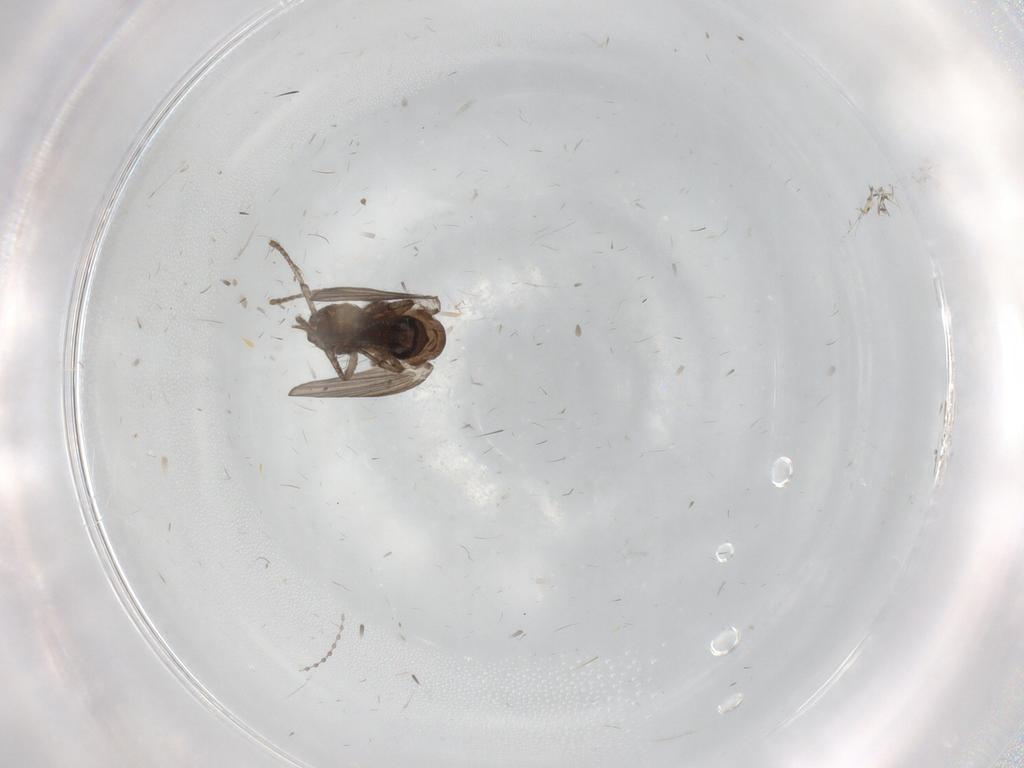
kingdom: Animalia
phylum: Arthropoda
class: Insecta
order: Diptera
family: Psychodidae
